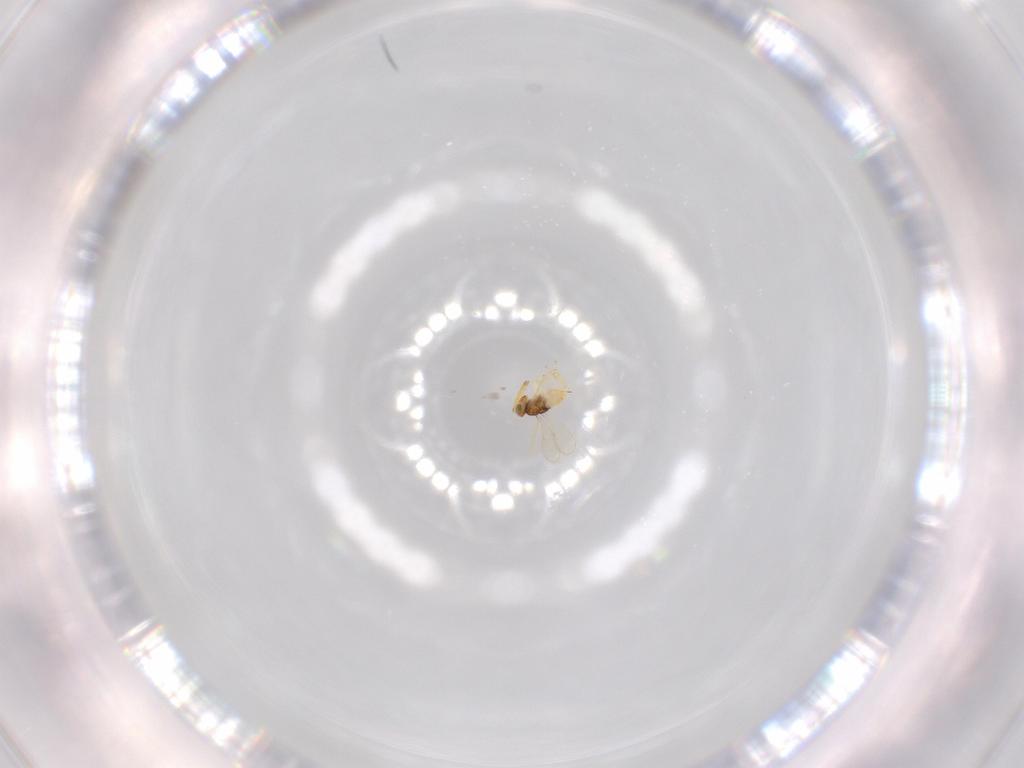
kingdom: Animalia
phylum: Arthropoda
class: Insecta
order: Hymenoptera
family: Aphelinidae
